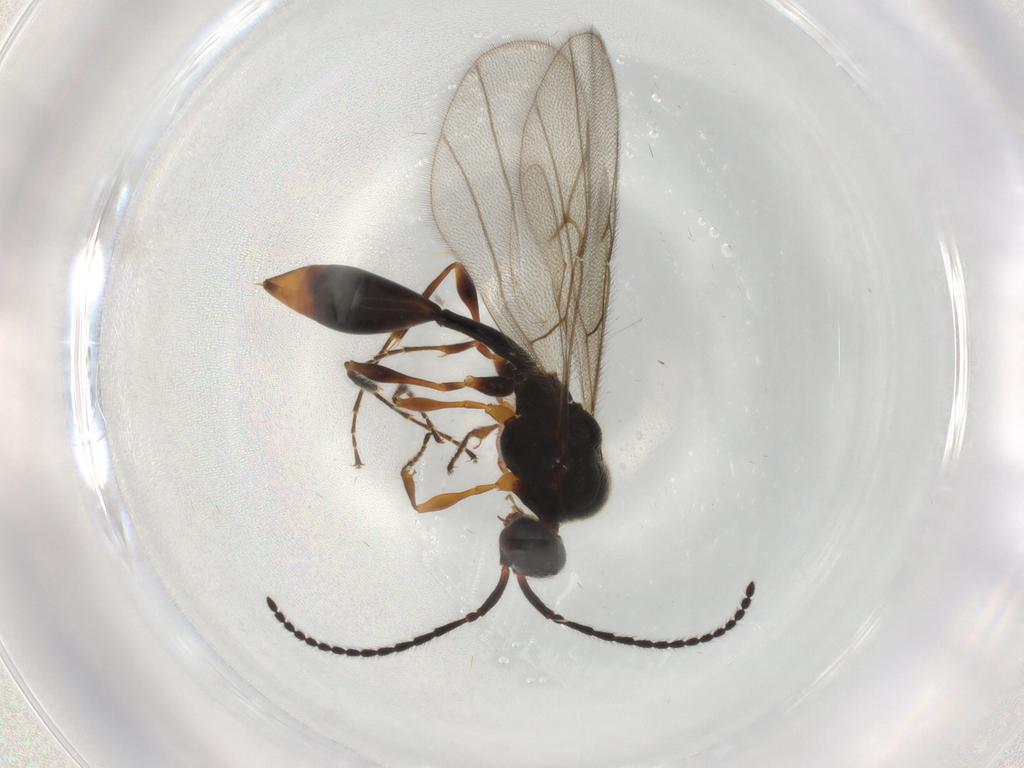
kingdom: Animalia
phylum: Arthropoda
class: Insecta
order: Hymenoptera
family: Diapriidae
